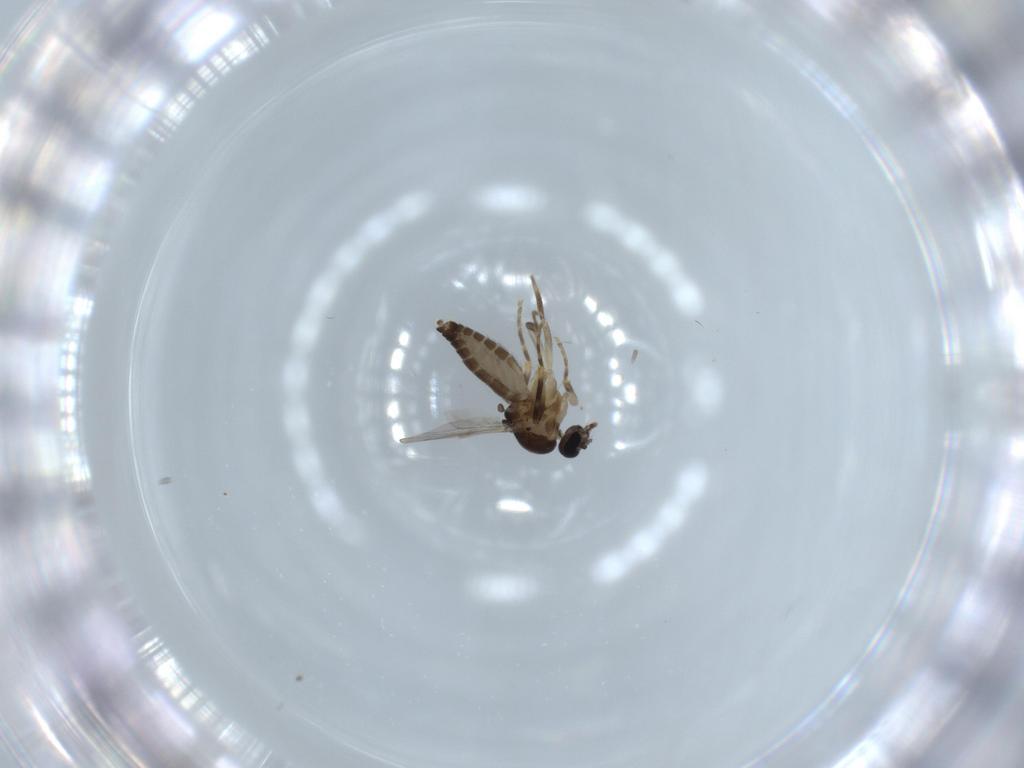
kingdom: Animalia
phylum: Arthropoda
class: Insecta
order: Diptera
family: Ceratopogonidae
